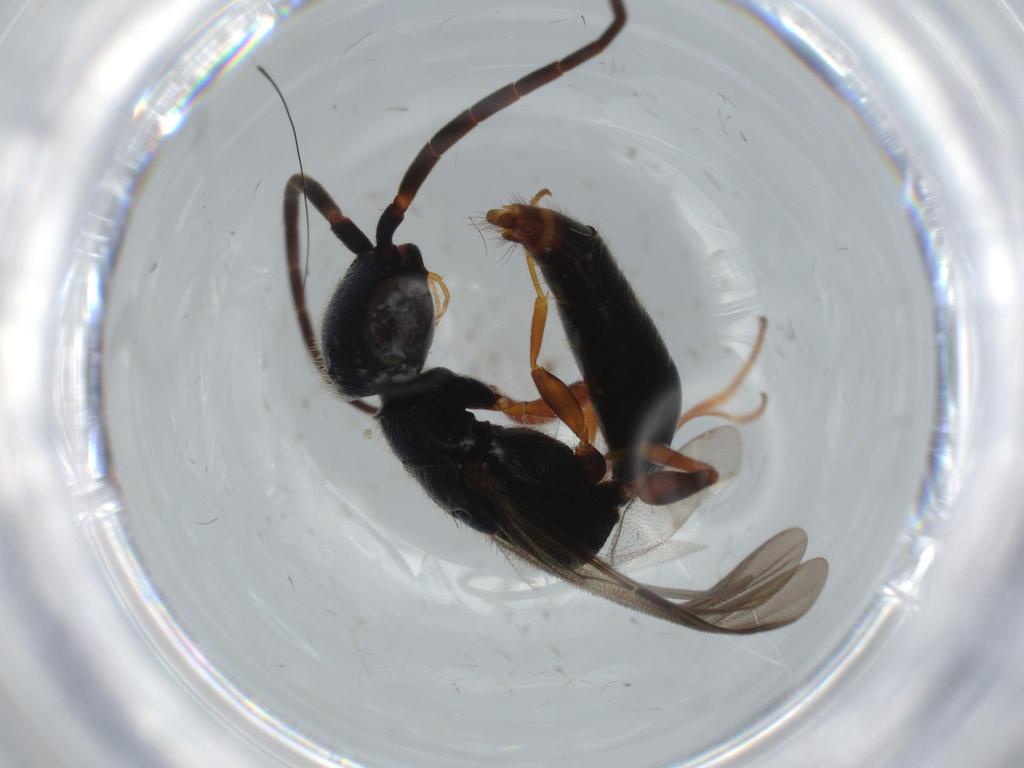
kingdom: Animalia
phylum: Arthropoda
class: Insecta
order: Hymenoptera
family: Bethylidae
